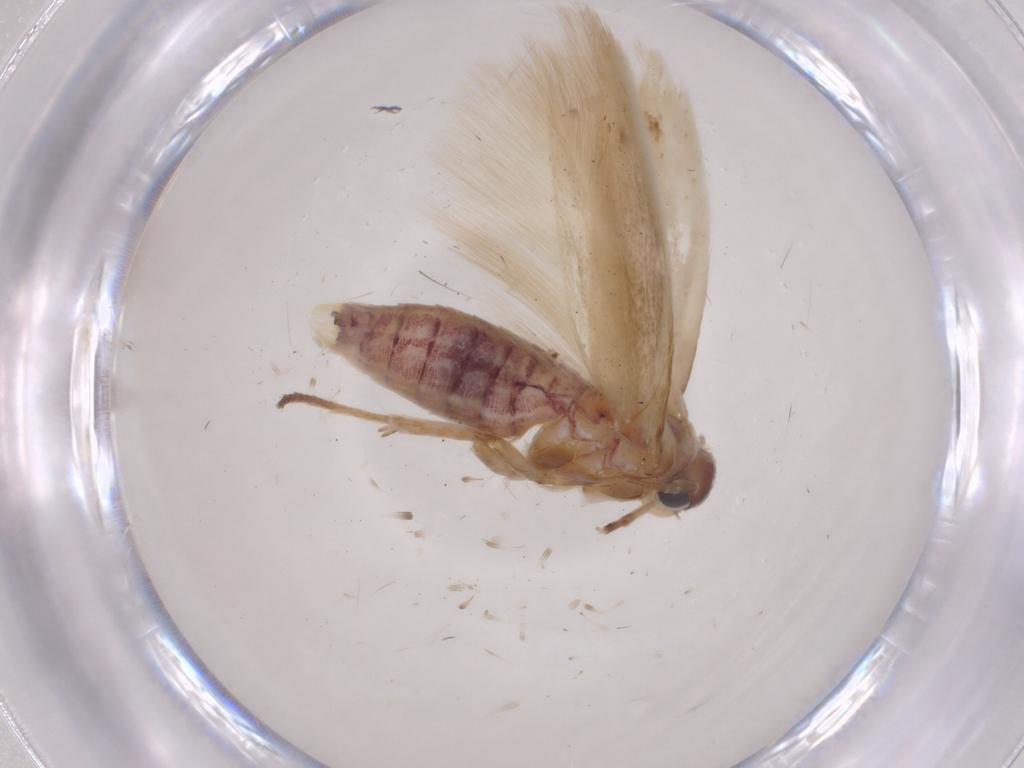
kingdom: Animalia
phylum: Arthropoda
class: Insecta
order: Lepidoptera
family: Scythrididae
